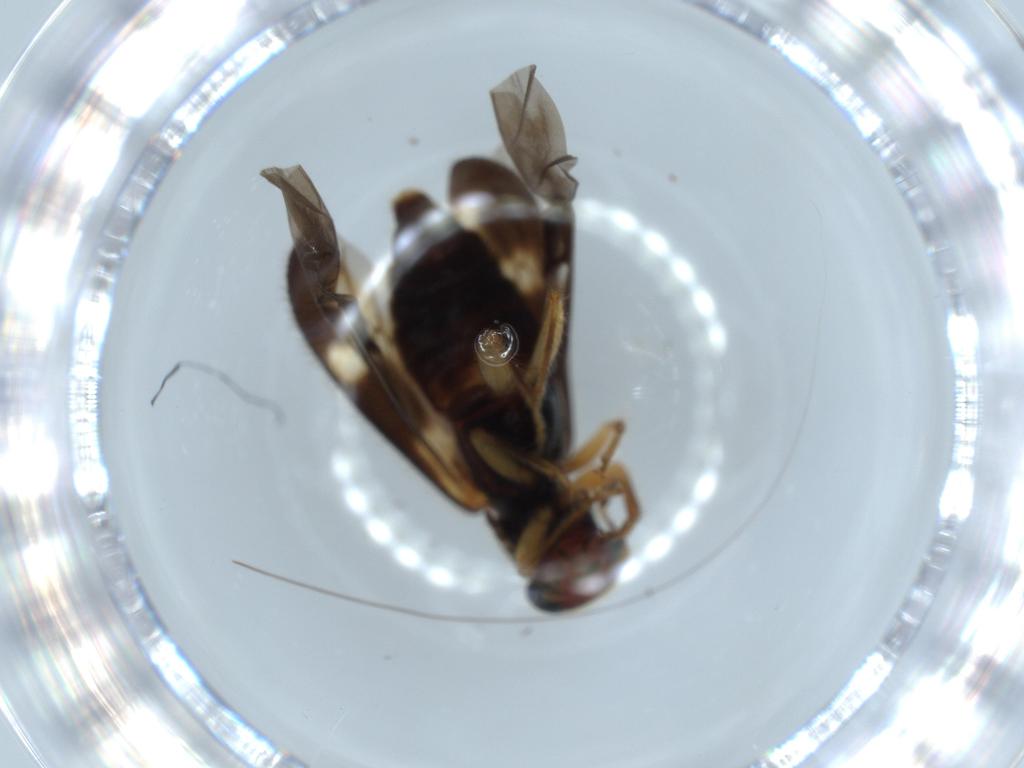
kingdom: Animalia
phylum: Arthropoda
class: Insecta
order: Coleoptera
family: Cleridae
